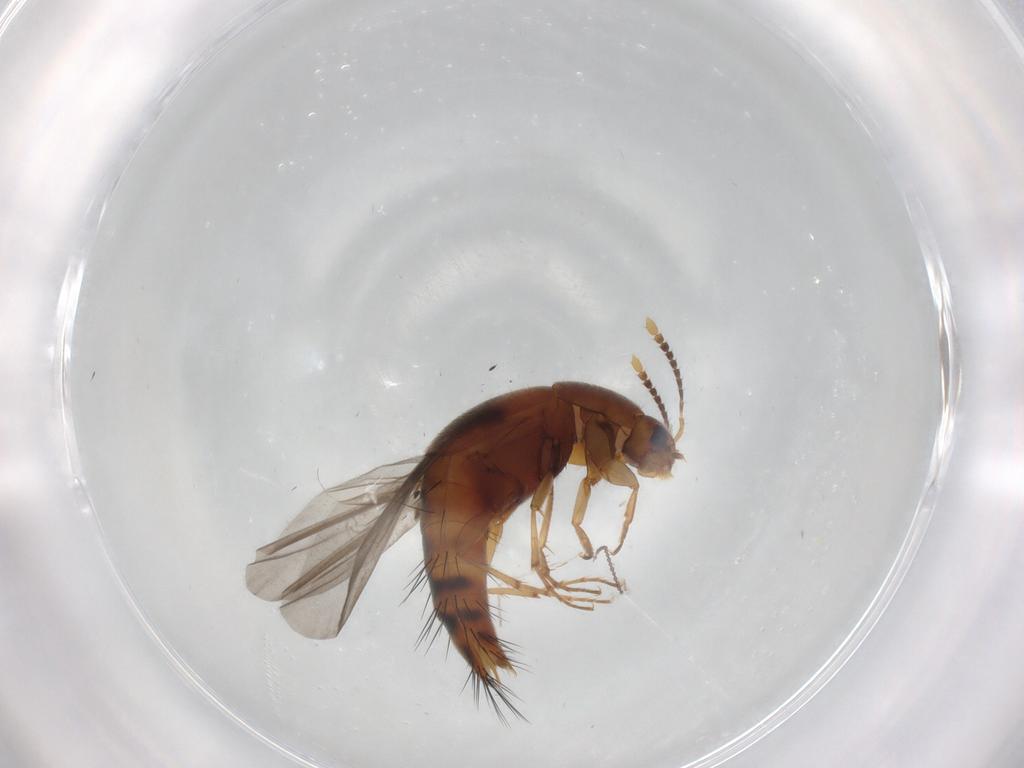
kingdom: Animalia
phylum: Arthropoda
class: Insecta
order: Coleoptera
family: Staphylinidae
